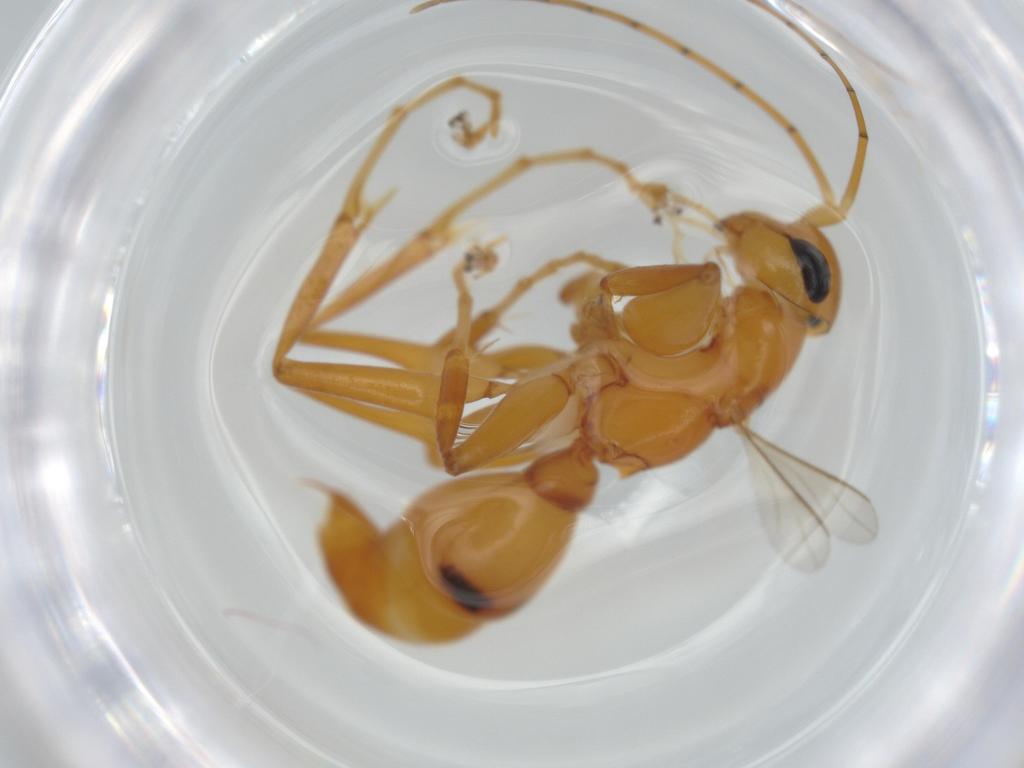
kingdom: Animalia
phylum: Arthropoda
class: Insecta
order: Hymenoptera
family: Rhopalosomatidae
